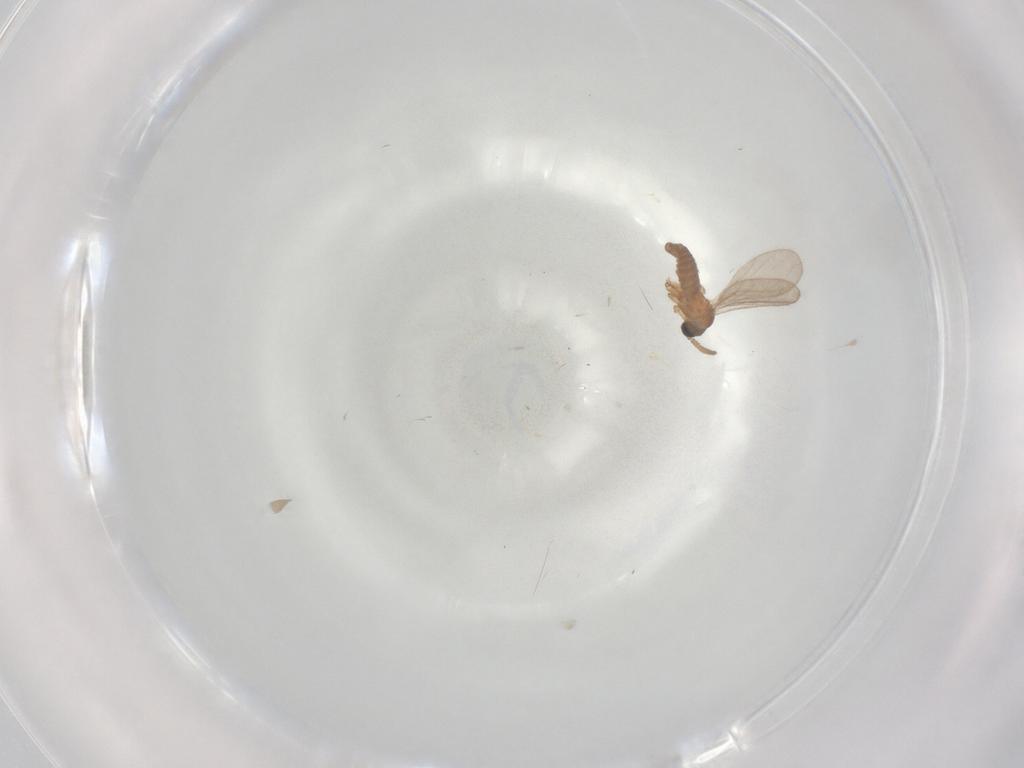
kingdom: Animalia
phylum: Arthropoda
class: Insecta
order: Diptera
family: Sciaridae
